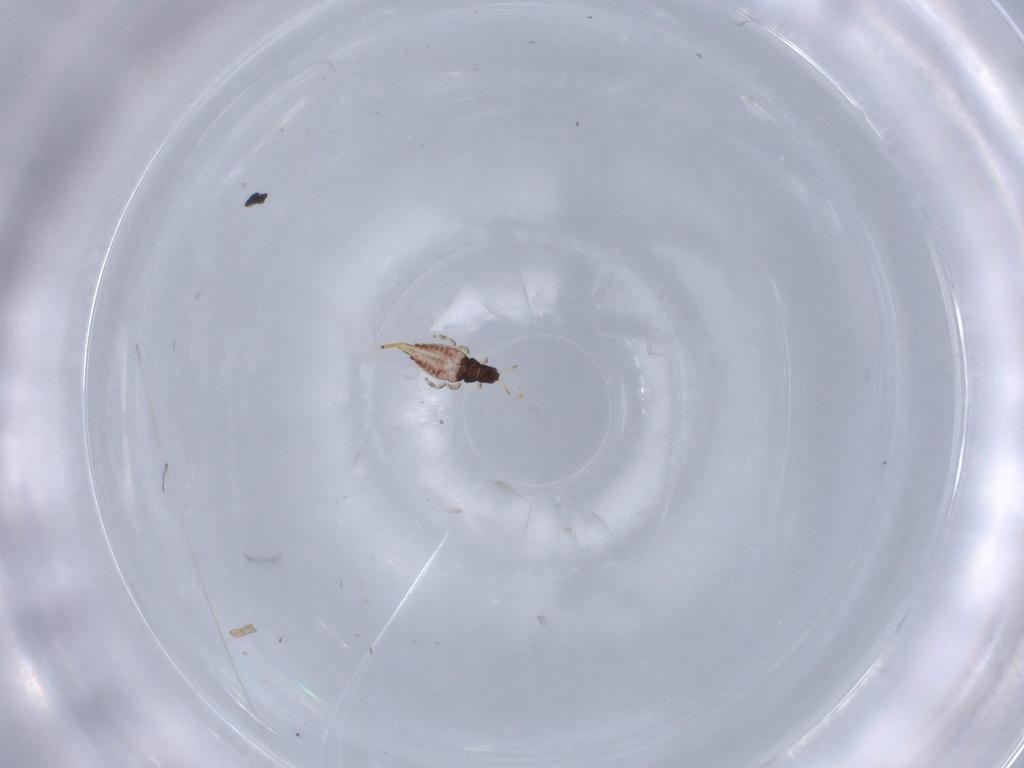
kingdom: Animalia
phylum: Arthropoda
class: Insecta
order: Thysanoptera
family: Phlaeothripidae
